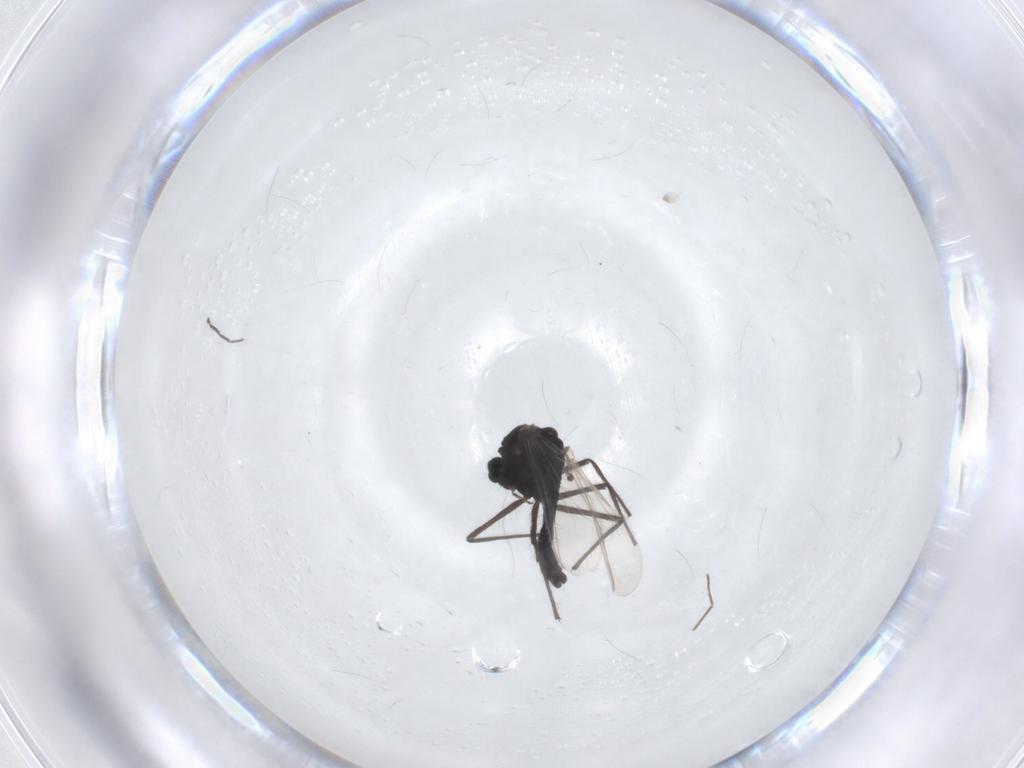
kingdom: Animalia
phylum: Arthropoda
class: Insecta
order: Diptera
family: Chironomidae
